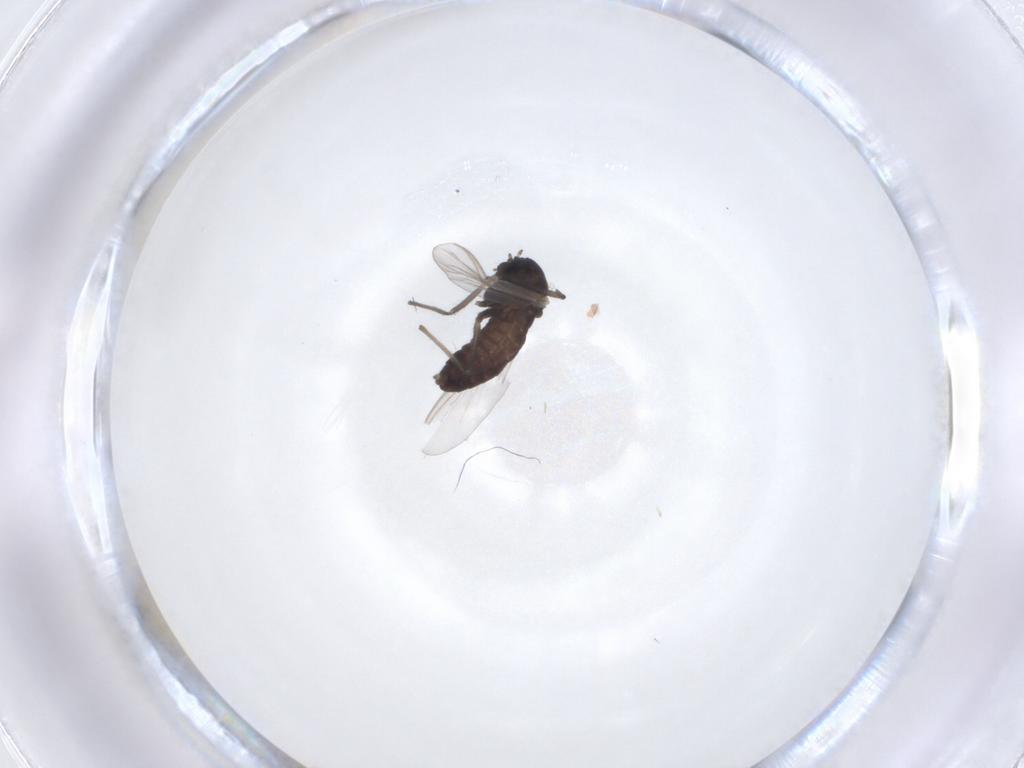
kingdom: Animalia
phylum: Arthropoda
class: Insecta
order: Diptera
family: Chironomidae
